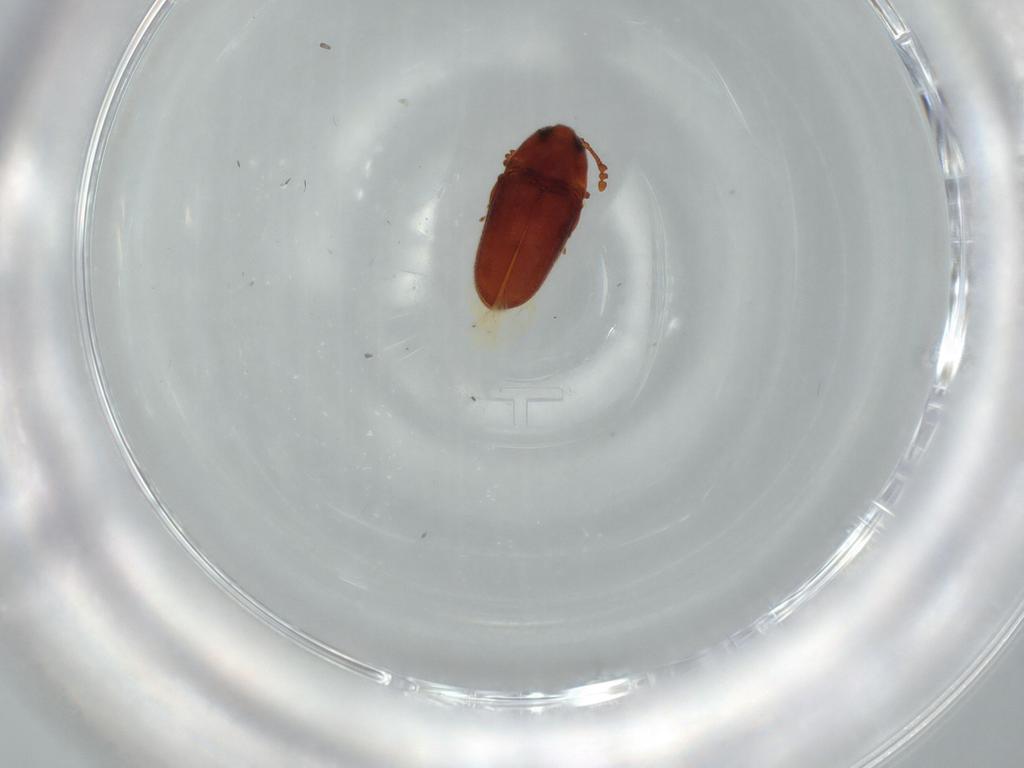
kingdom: Animalia
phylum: Arthropoda
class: Insecta
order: Coleoptera
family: Throscidae
